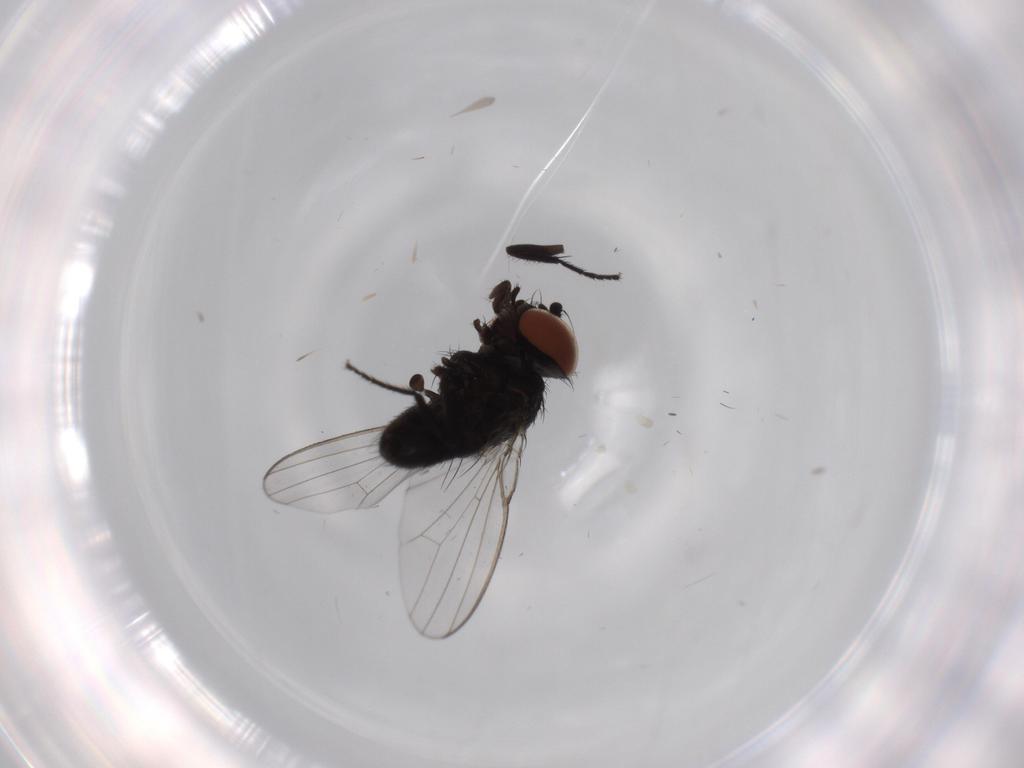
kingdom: Animalia
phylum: Arthropoda
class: Insecta
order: Diptera
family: Milichiidae
